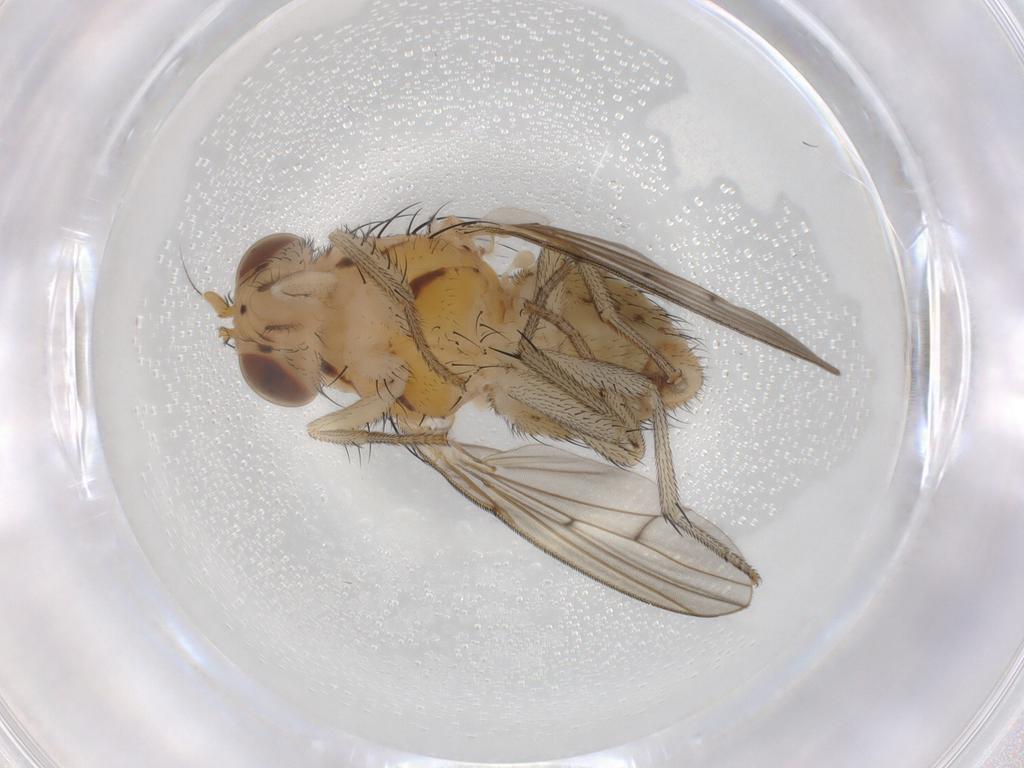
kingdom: Animalia
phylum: Arthropoda
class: Insecta
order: Diptera
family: Lauxaniidae
